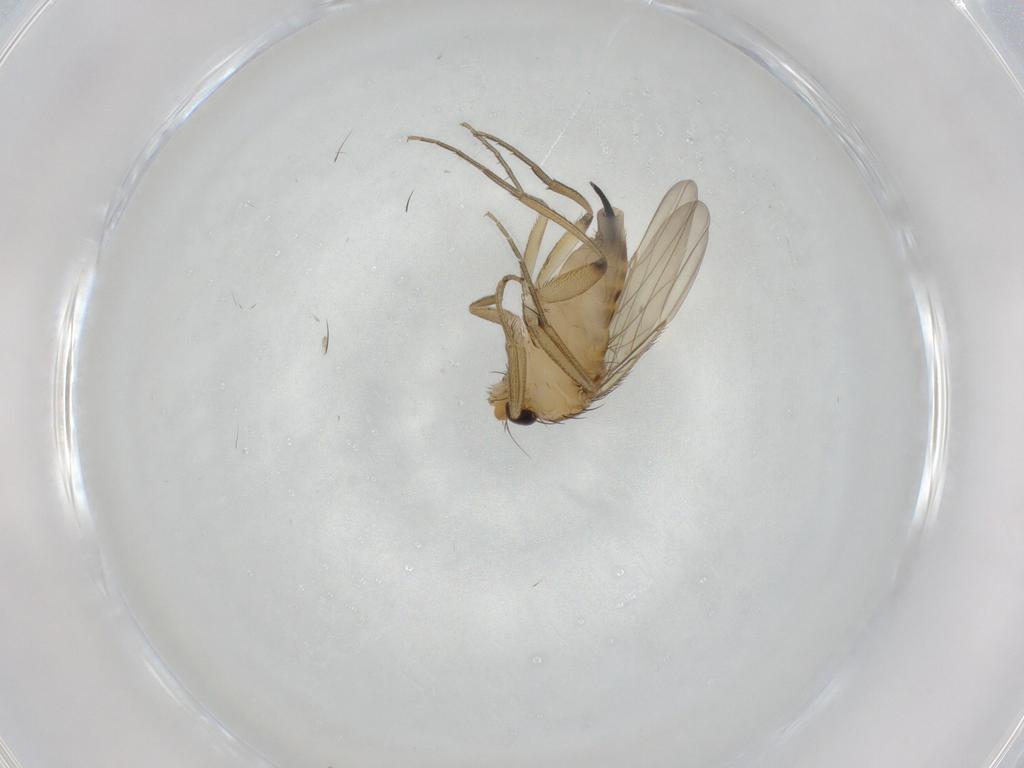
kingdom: Animalia
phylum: Arthropoda
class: Insecta
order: Diptera
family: Phoridae
